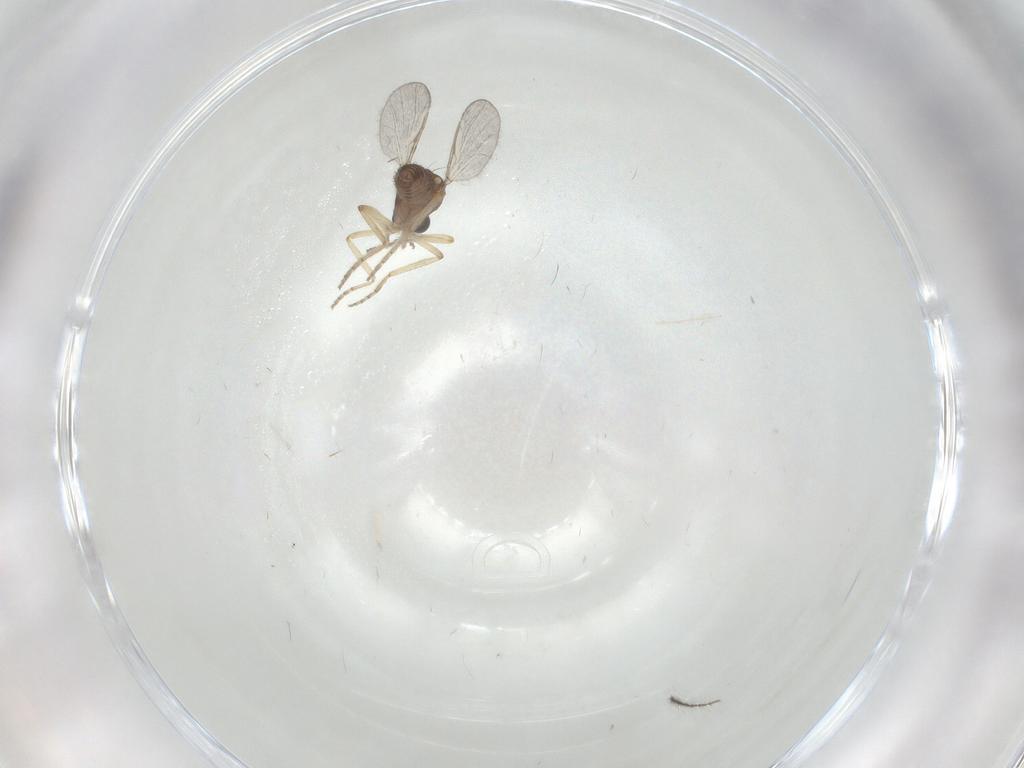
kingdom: Animalia
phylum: Arthropoda
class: Insecta
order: Diptera
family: Ceratopogonidae
